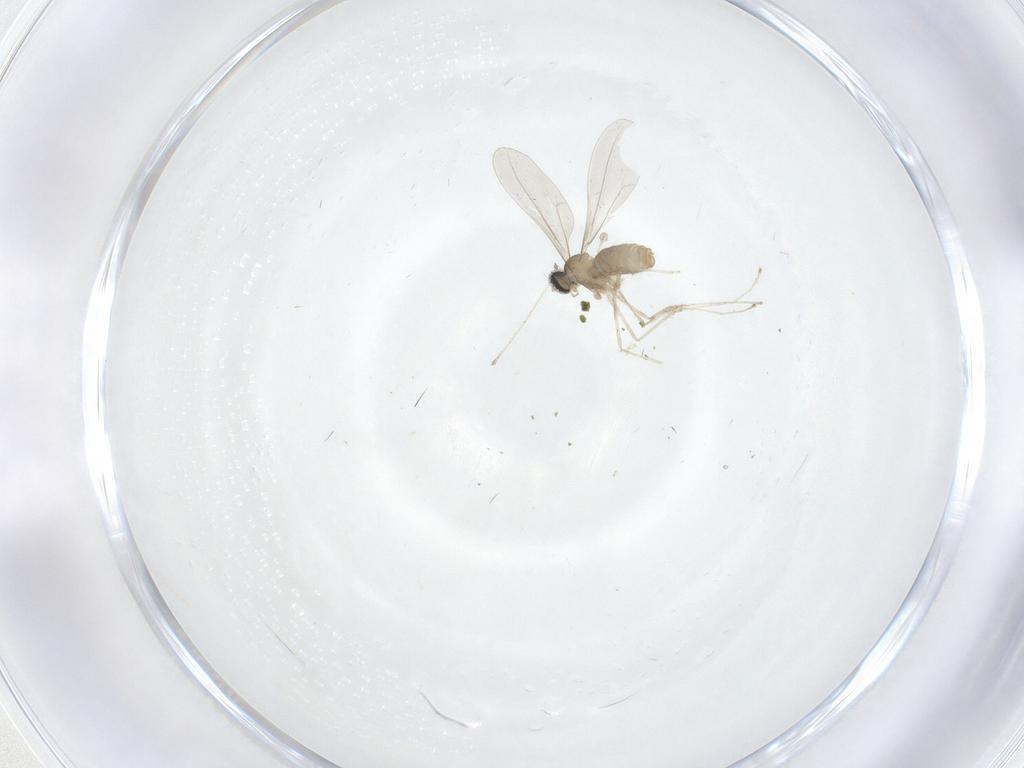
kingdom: Animalia
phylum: Arthropoda
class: Insecta
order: Diptera
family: Cecidomyiidae
